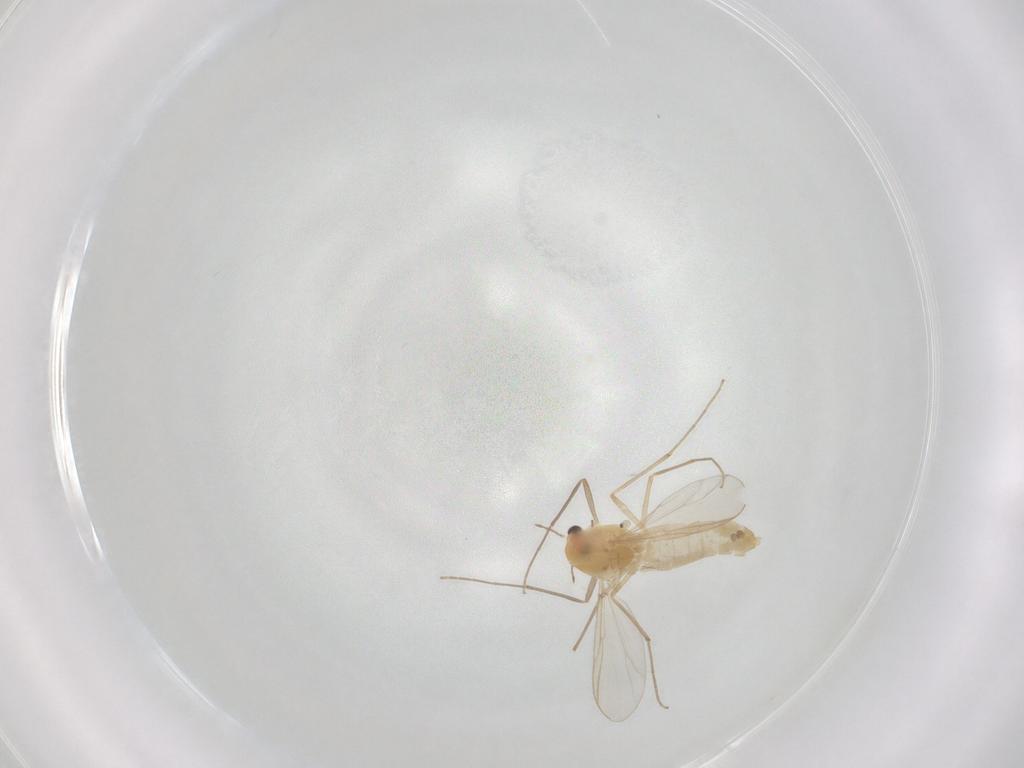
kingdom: Animalia
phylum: Arthropoda
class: Insecta
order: Diptera
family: Chironomidae
